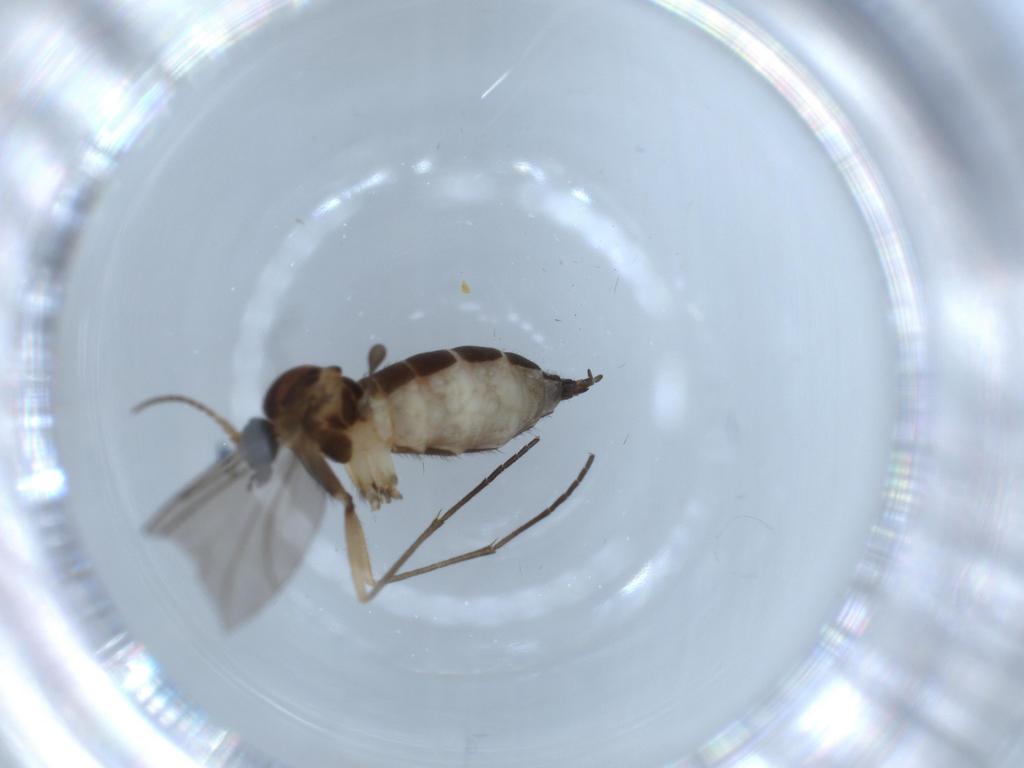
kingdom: Animalia
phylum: Arthropoda
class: Insecta
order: Diptera
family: Sciaridae
